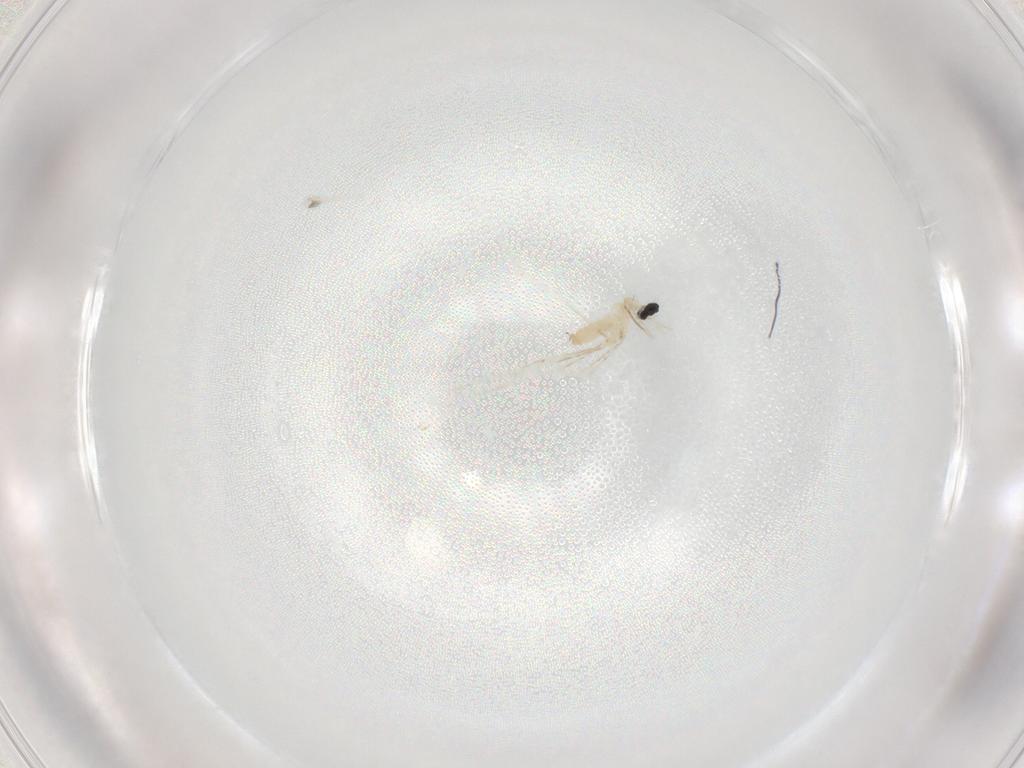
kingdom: Animalia
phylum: Arthropoda
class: Insecta
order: Diptera
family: Cecidomyiidae
